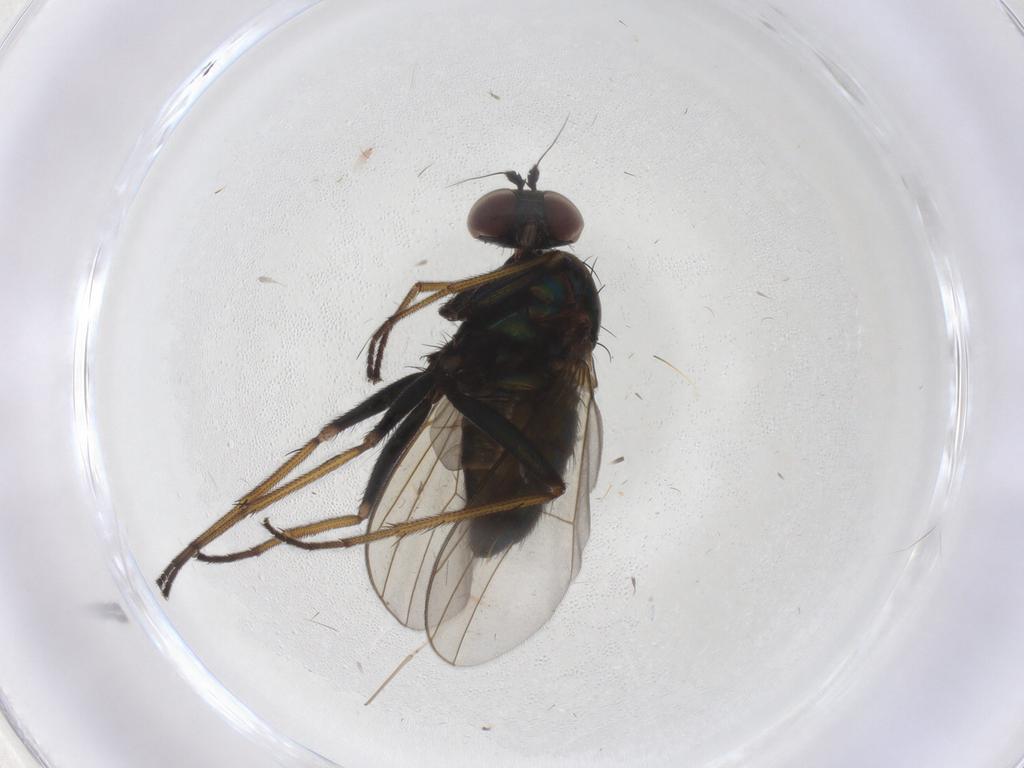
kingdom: Animalia
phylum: Arthropoda
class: Insecta
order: Diptera
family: Dolichopodidae
